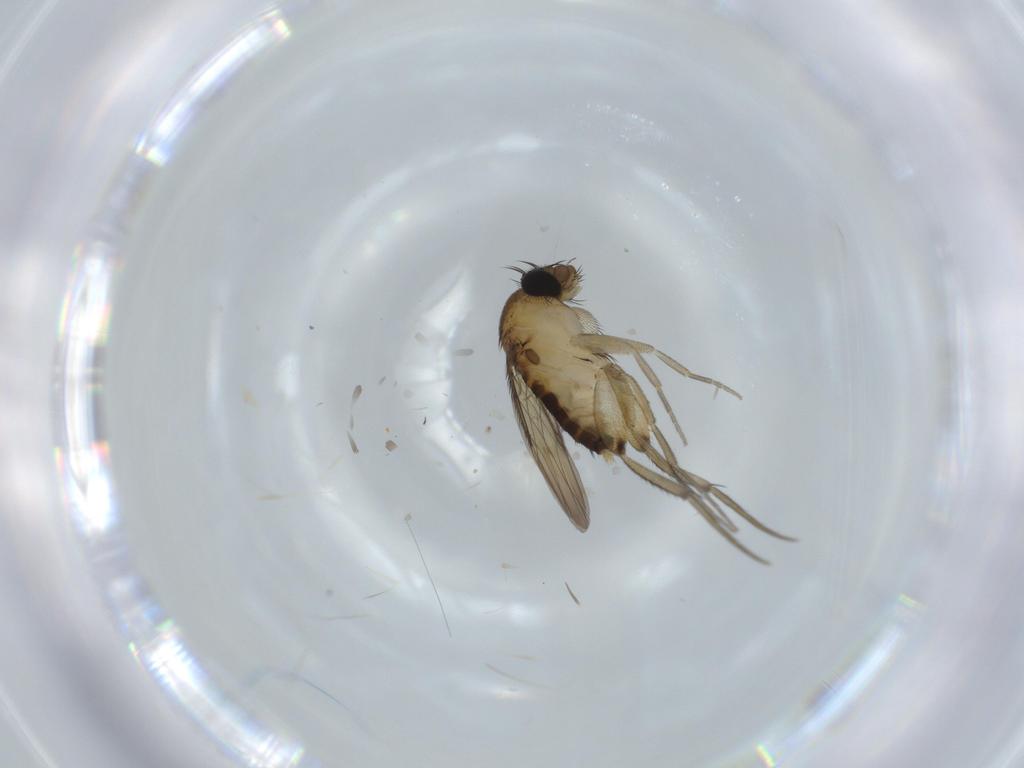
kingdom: Animalia
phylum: Arthropoda
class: Insecta
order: Diptera
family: Phoridae
